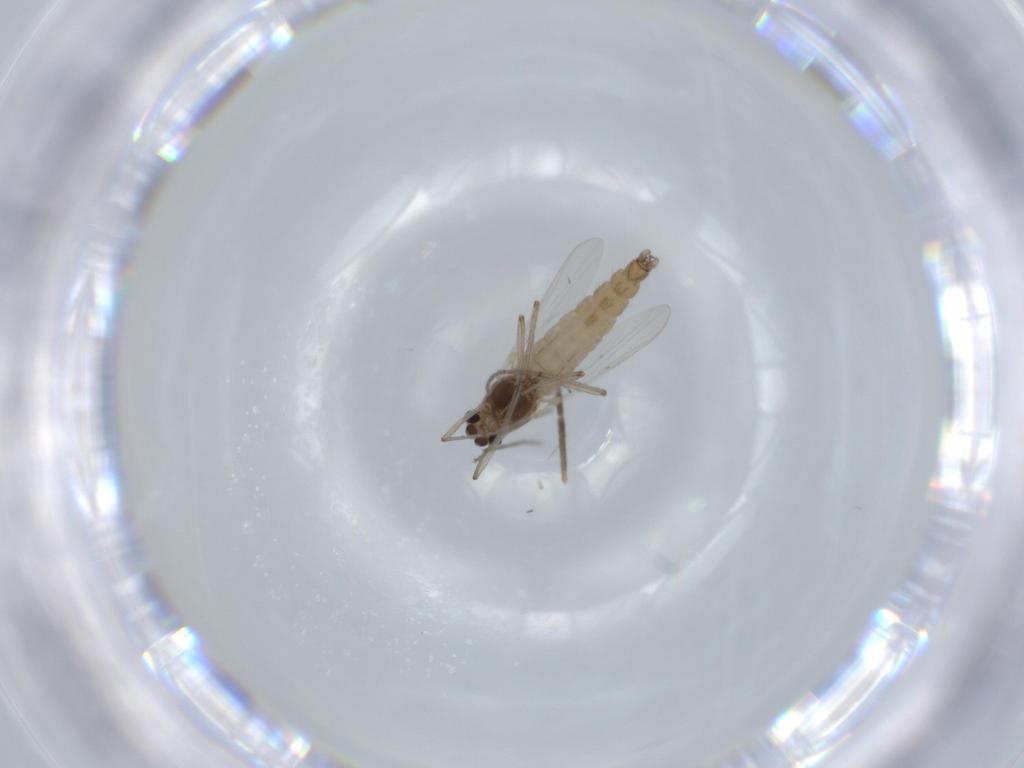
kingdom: Animalia
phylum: Arthropoda
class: Insecta
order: Diptera
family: Chironomidae
